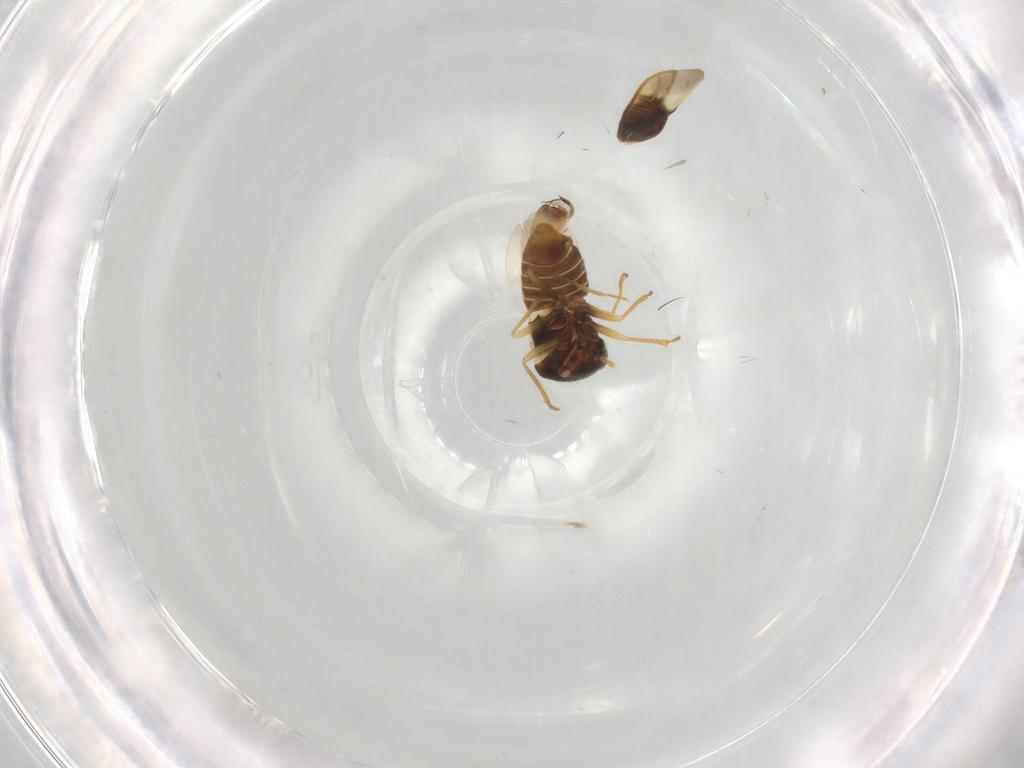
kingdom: Animalia
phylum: Arthropoda
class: Insecta
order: Hemiptera
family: Schizopteridae
